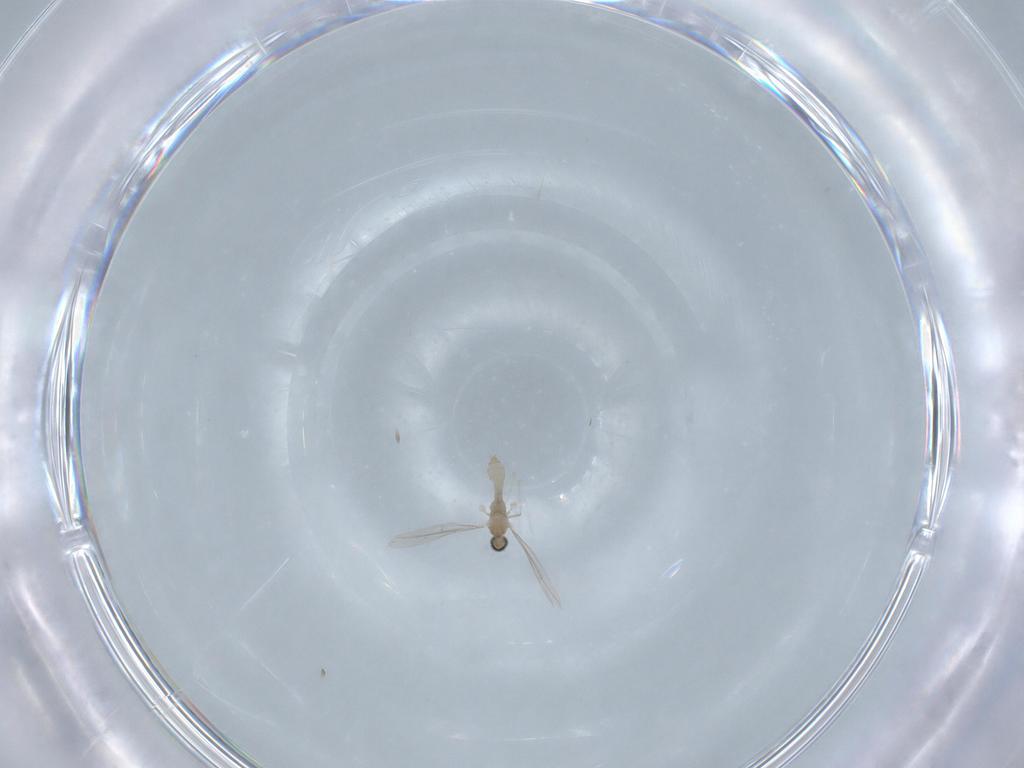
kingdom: Animalia
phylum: Arthropoda
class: Insecta
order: Diptera
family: Cecidomyiidae
